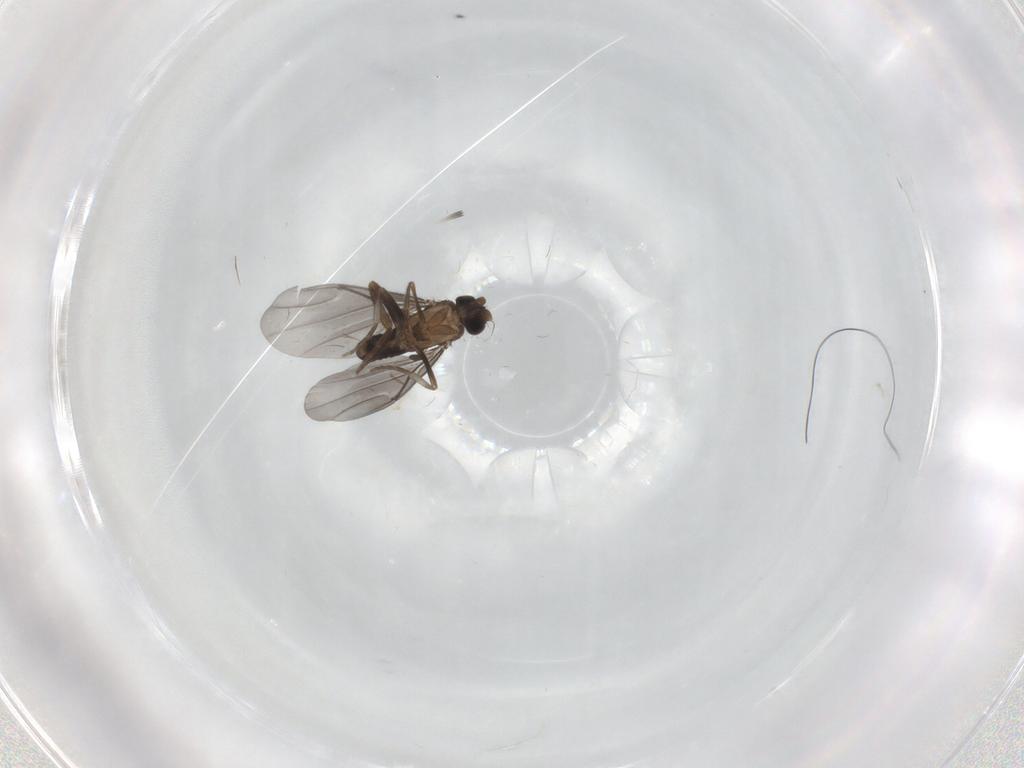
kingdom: Animalia
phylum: Arthropoda
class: Insecta
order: Diptera
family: Phoridae
